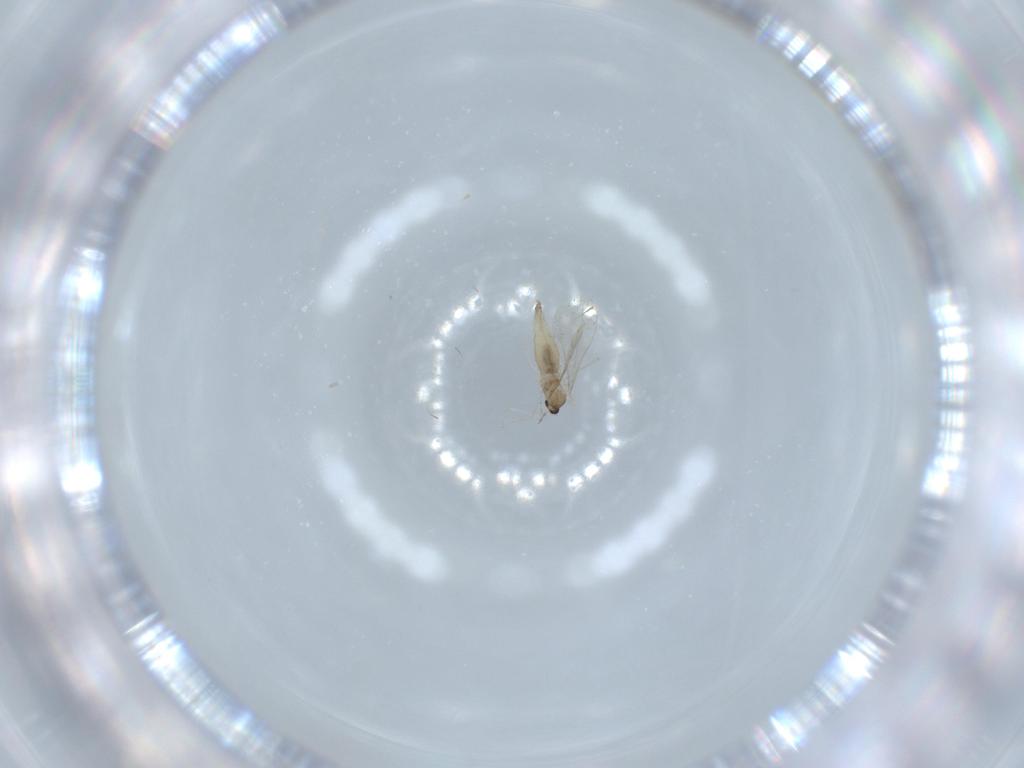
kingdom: Animalia
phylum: Arthropoda
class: Insecta
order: Diptera
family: Cecidomyiidae
